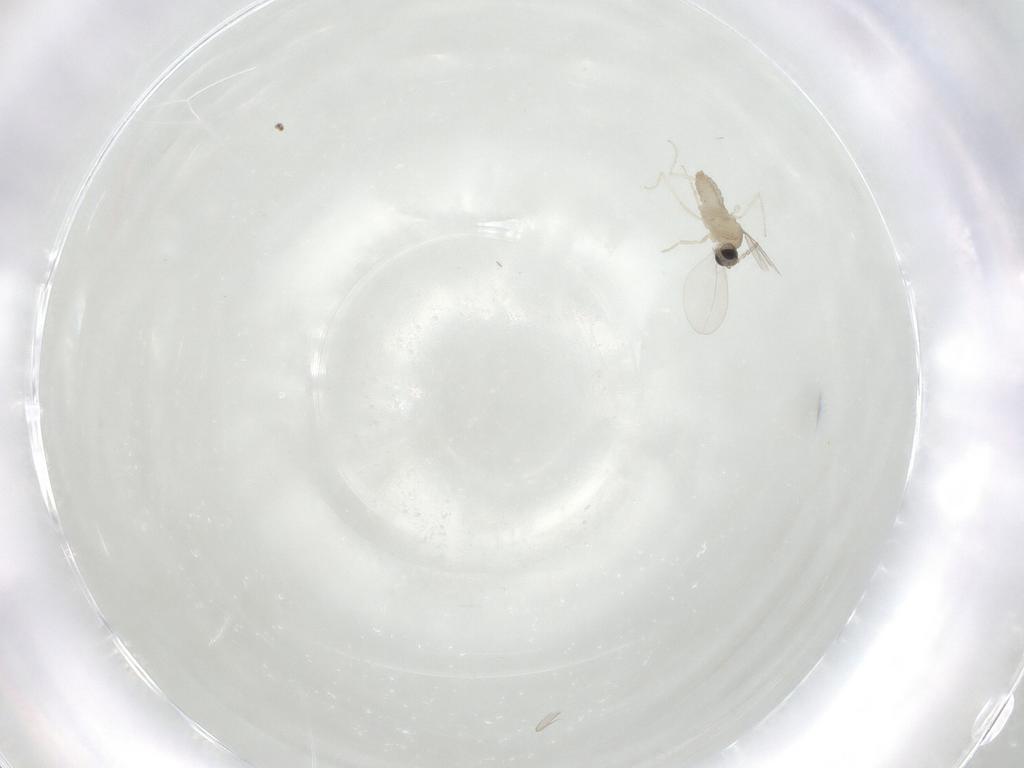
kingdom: Animalia
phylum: Arthropoda
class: Insecta
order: Diptera
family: Cecidomyiidae
